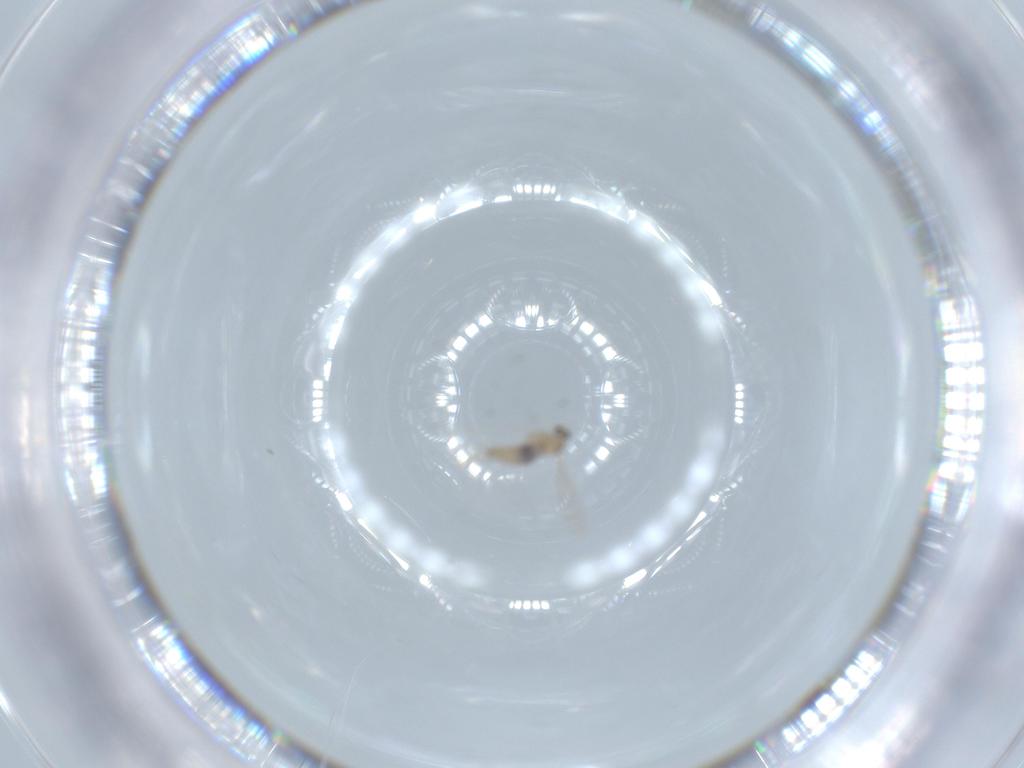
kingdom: Animalia
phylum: Arthropoda
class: Insecta
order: Diptera
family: Cecidomyiidae
